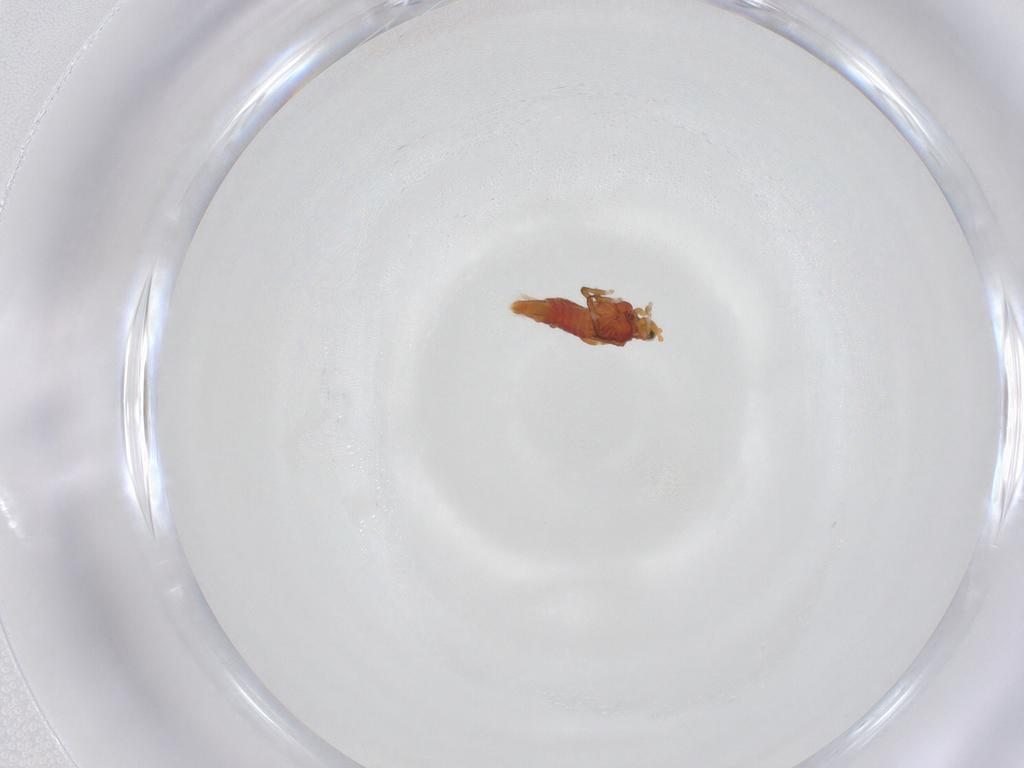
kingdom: Animalia
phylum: Arthropoda
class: Insecta
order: Thysanoptera
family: Thripidae
